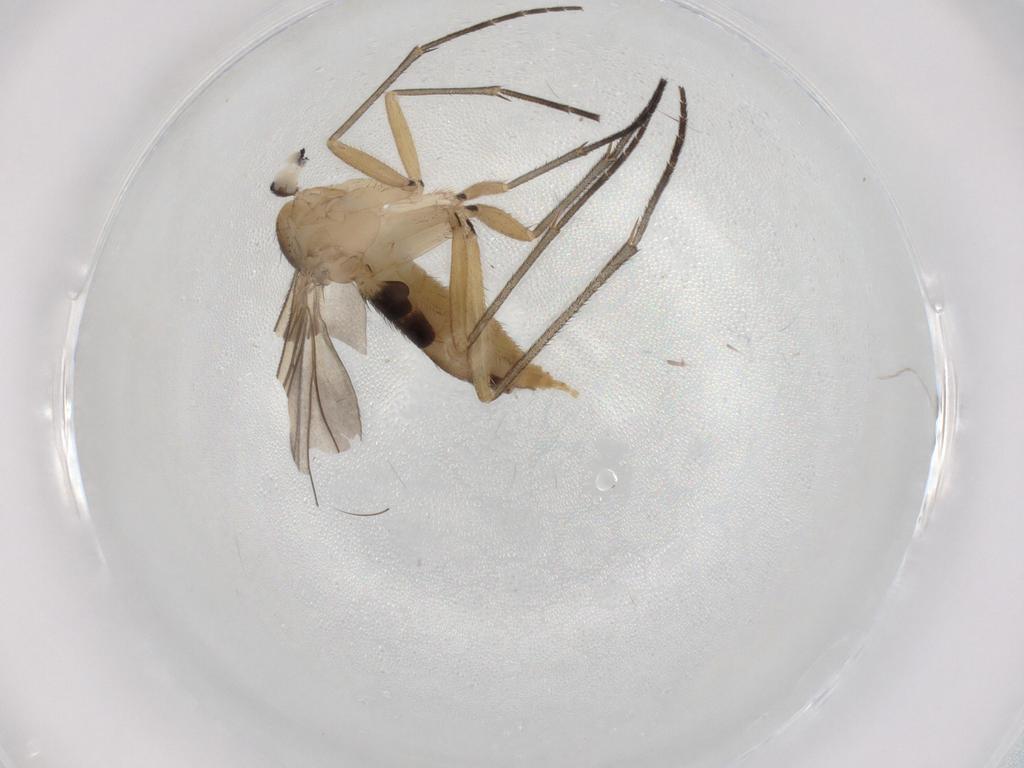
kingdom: Animalia
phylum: Arthropoda
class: Insecta
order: Diptera
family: Sciaridae
